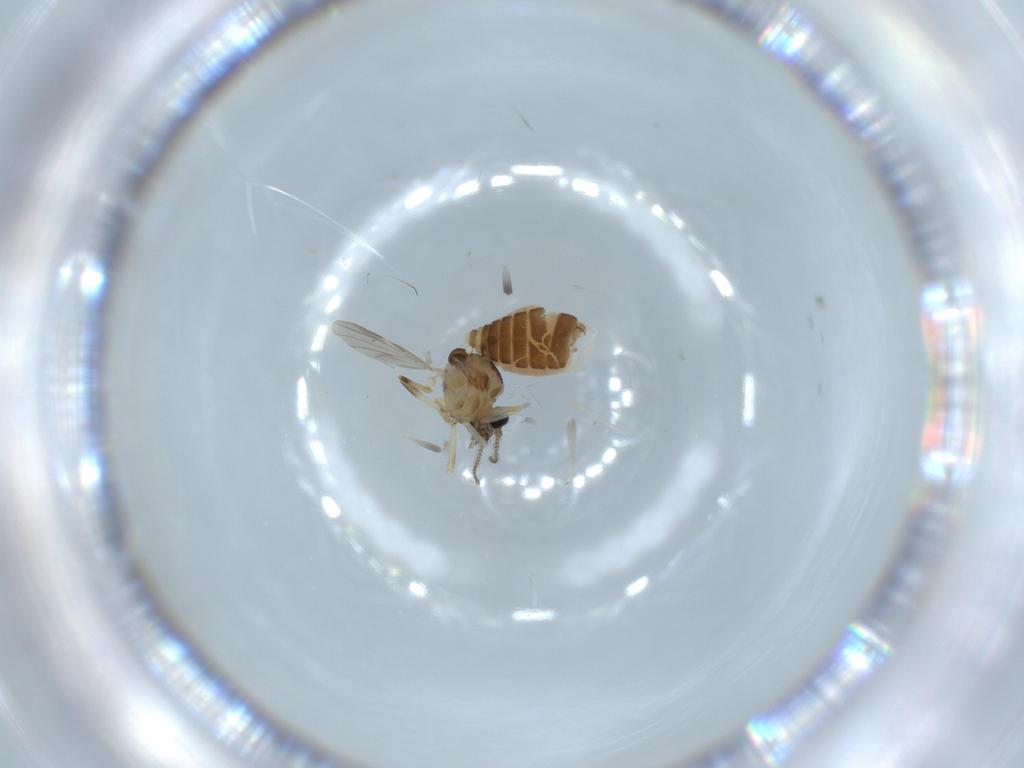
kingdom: Animalia
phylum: Arthropoda
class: Insecta
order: Diptera
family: Ceratopogonidae
